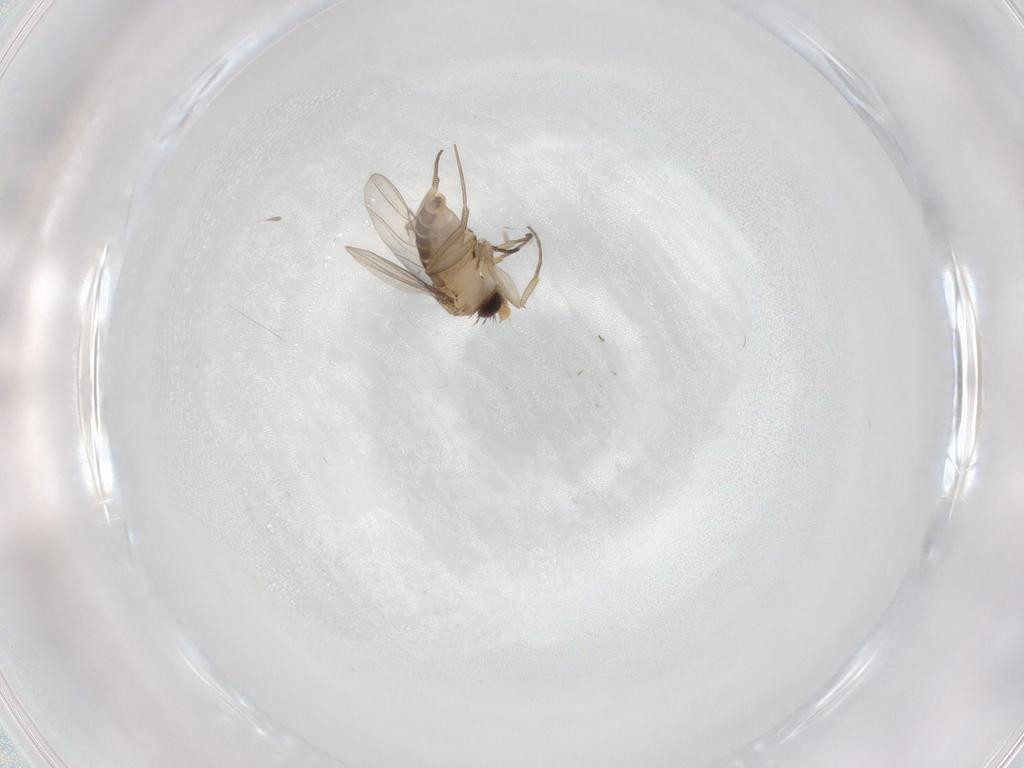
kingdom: Animalia
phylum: Arthropoda
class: Insecta
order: Diptera
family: Sciaridae
